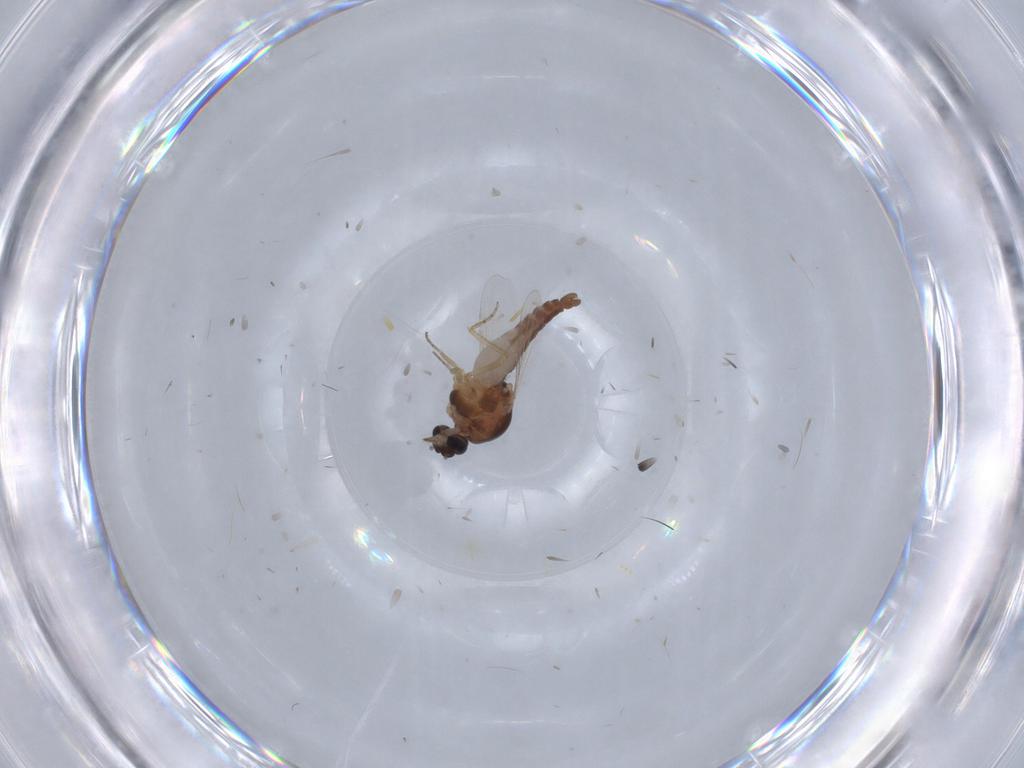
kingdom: Animalia
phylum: Arthropoda
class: Insecta
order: Diptera
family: Ceratopogonidae
